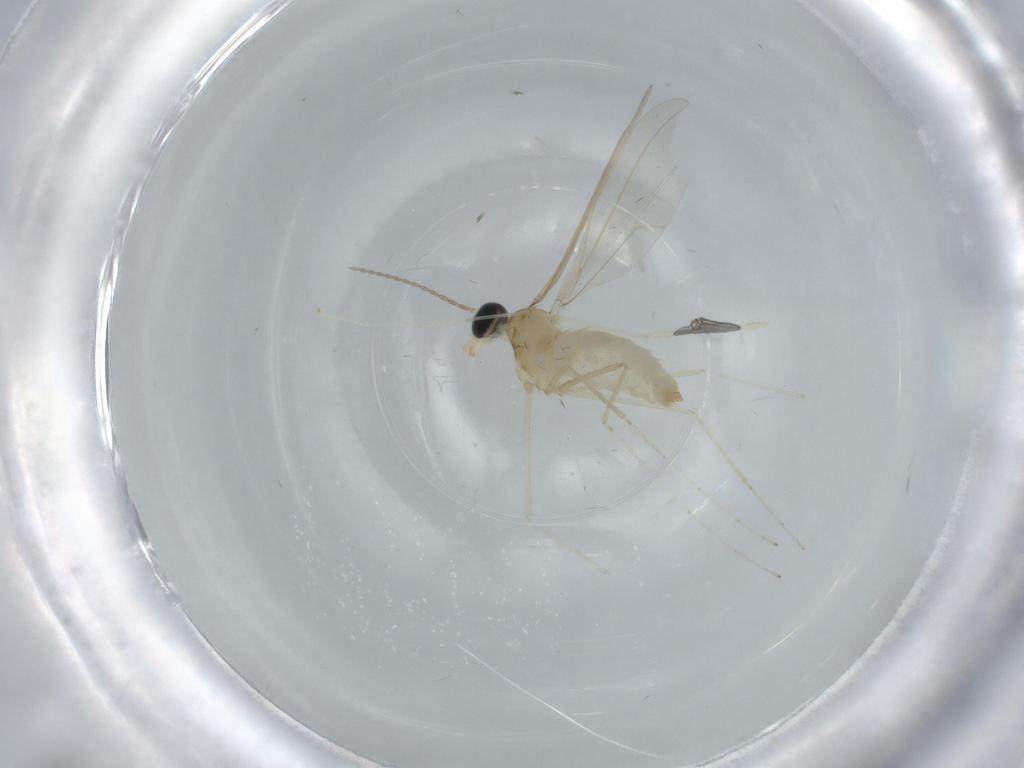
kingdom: Animalia
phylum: Arthropoda
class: Insecta
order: Diptera
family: Cecidomyiidae
